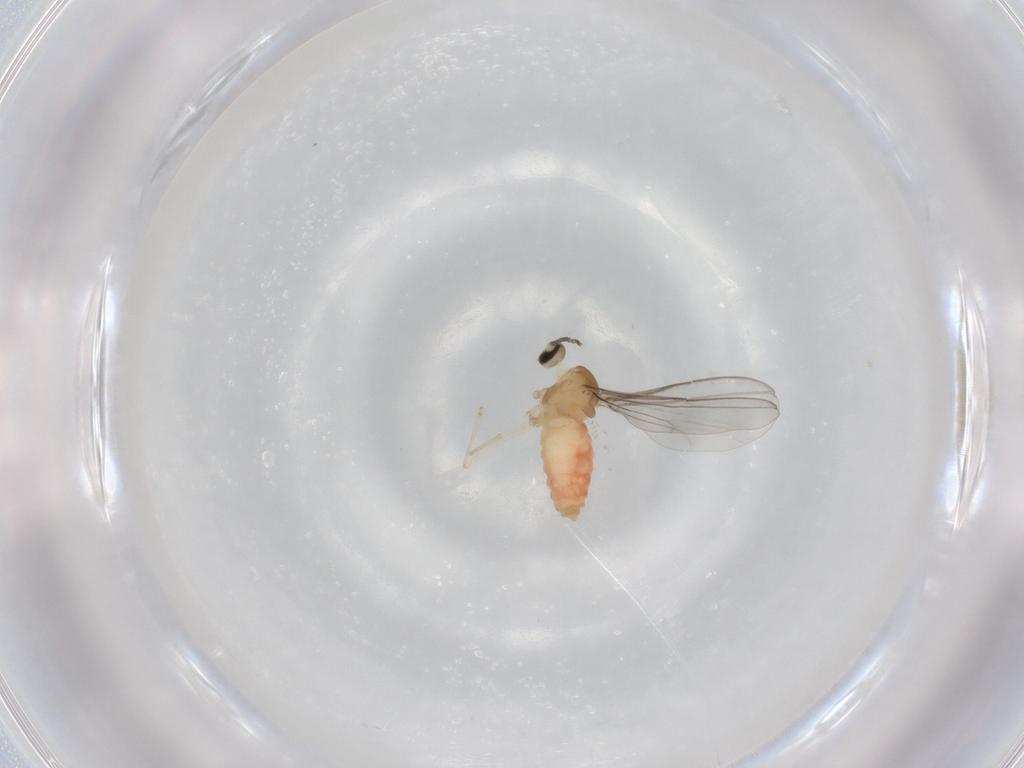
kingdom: Animalia
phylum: Arthropoda
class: Insecta
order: Diptera
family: Cecidomyiidae
